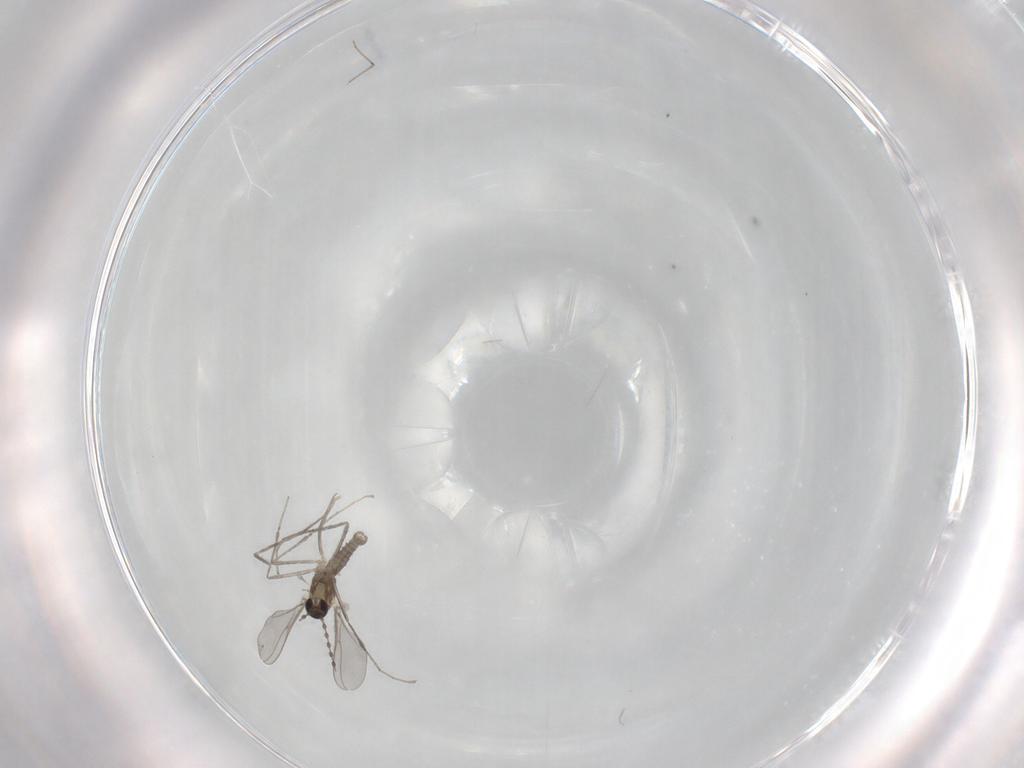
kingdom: Animalia
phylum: Arthropoda
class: Insecta
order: Diptera
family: Cecidomyiidae
